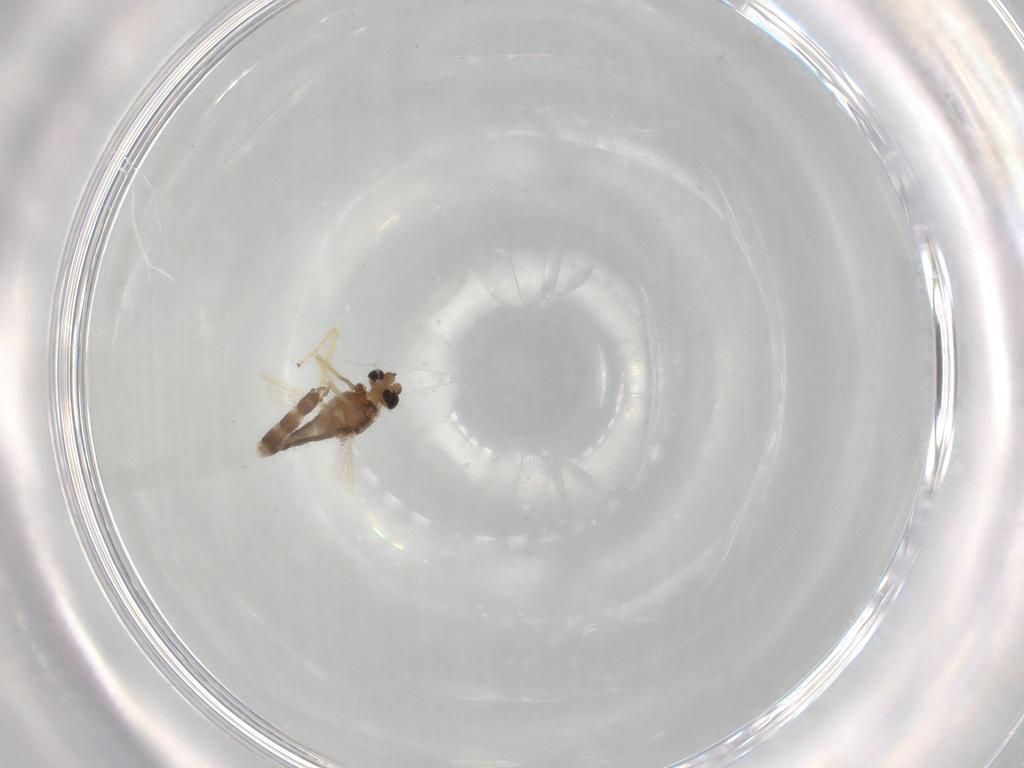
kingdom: Animalia
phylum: Arthropoda
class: Insecta
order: Diptera
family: Chironomidae
